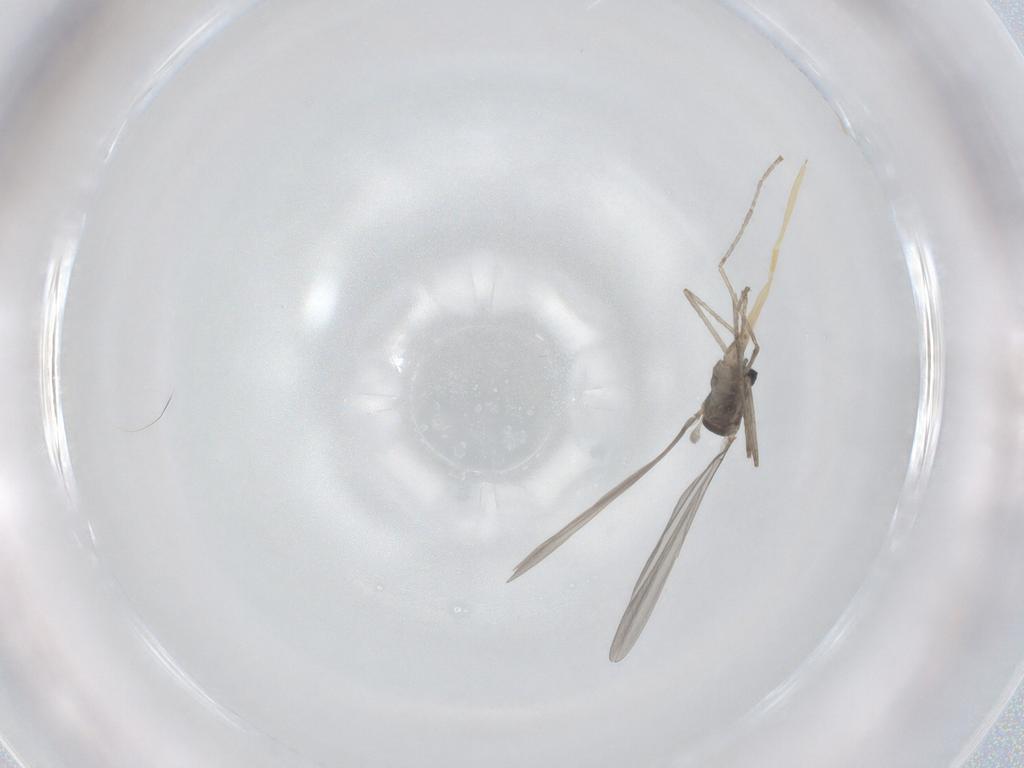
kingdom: Animalia
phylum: Arthropoda
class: Insecta
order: Diptera
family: Cecidomyiidae
